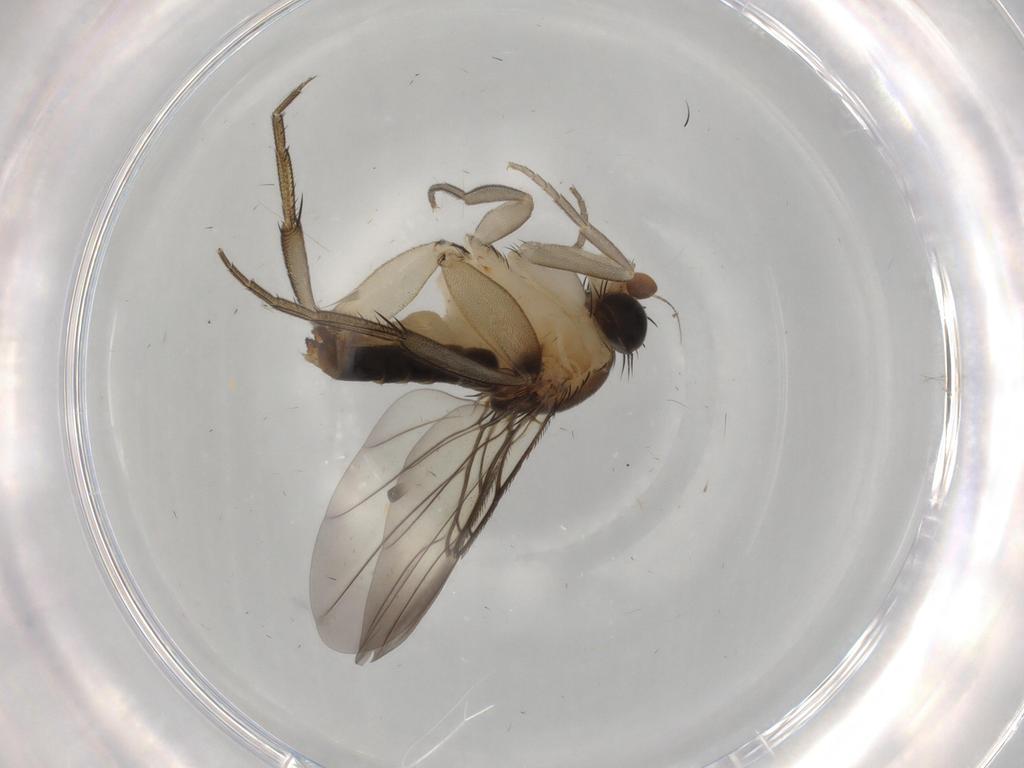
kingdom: Animalia
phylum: Arthropoda
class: Insecta
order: Diptera
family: Phoridae
